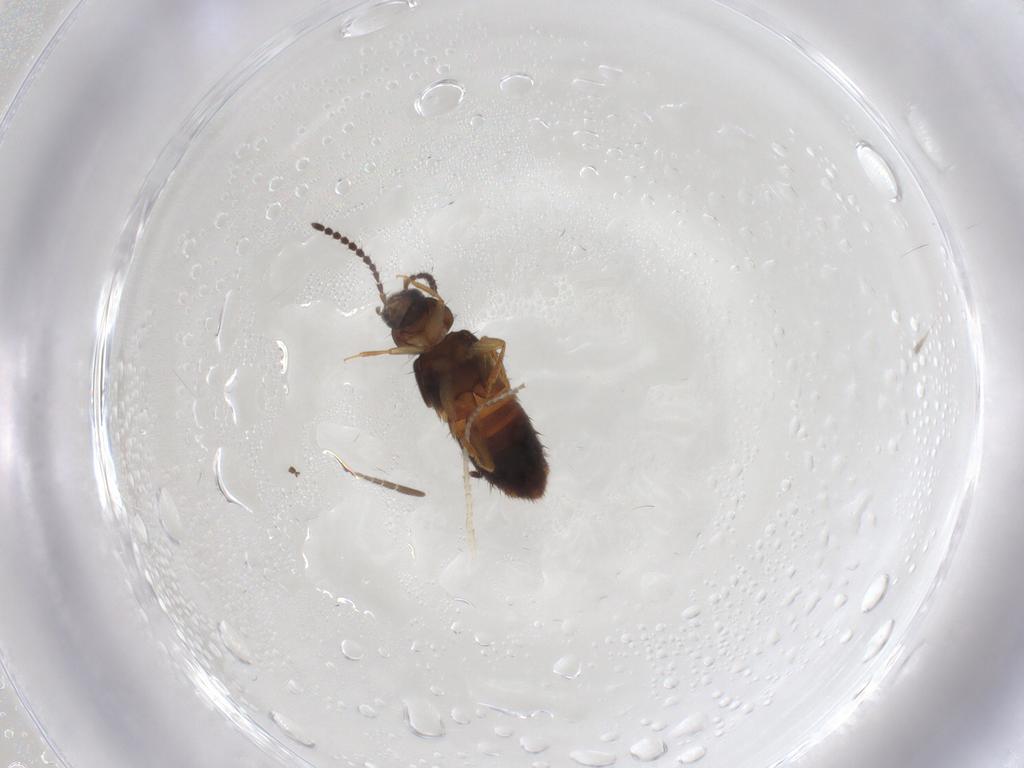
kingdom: Animalia
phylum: Arthropoda
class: Insecta
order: Coleoptera
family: Staphylinidae
